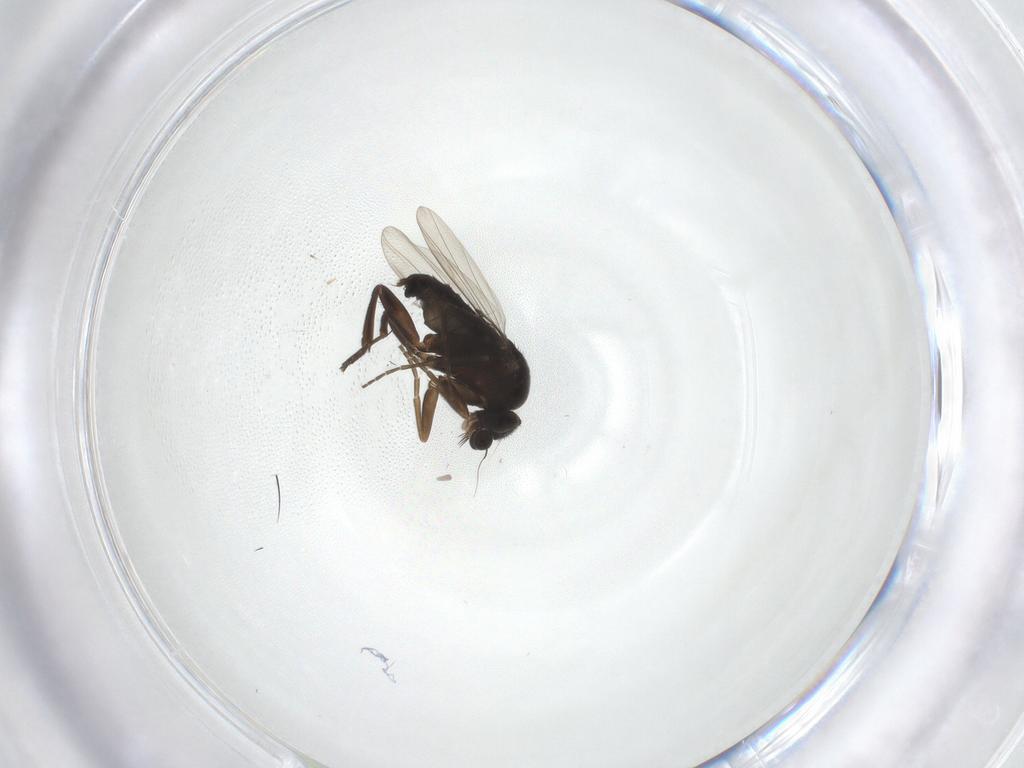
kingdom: Animalia
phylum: Arthropoda
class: Insecta
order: Diptera
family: Phoridae
